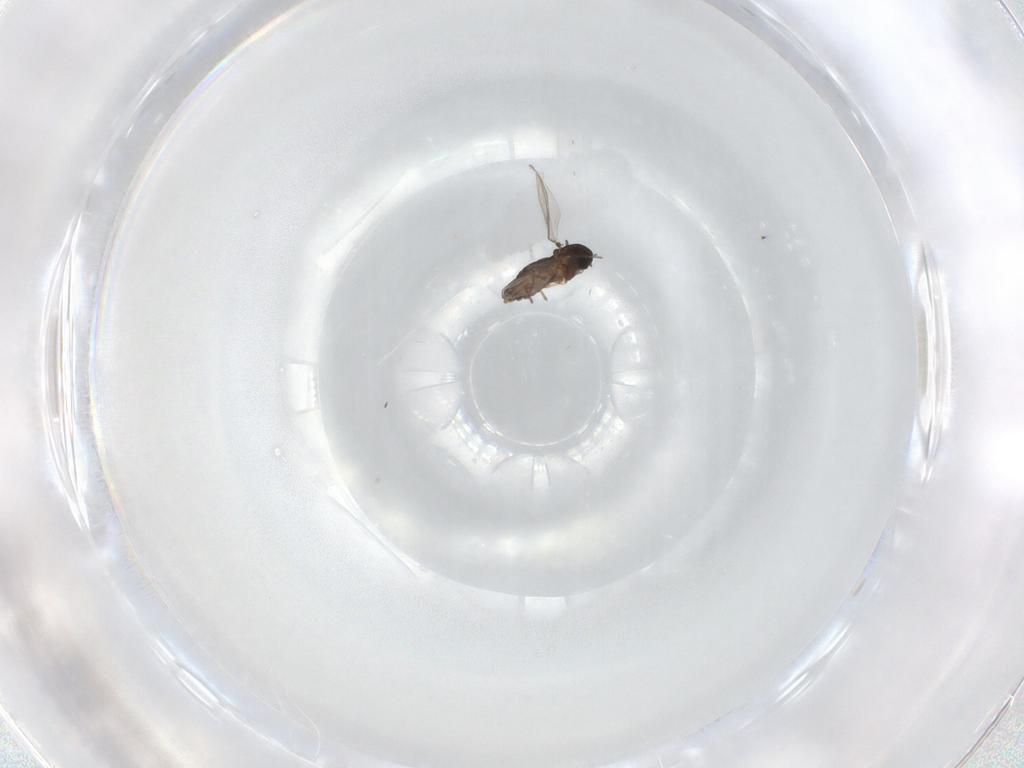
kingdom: Animalia
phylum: Arthropoda
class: Insecta
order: Diptera
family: Chironomidae
